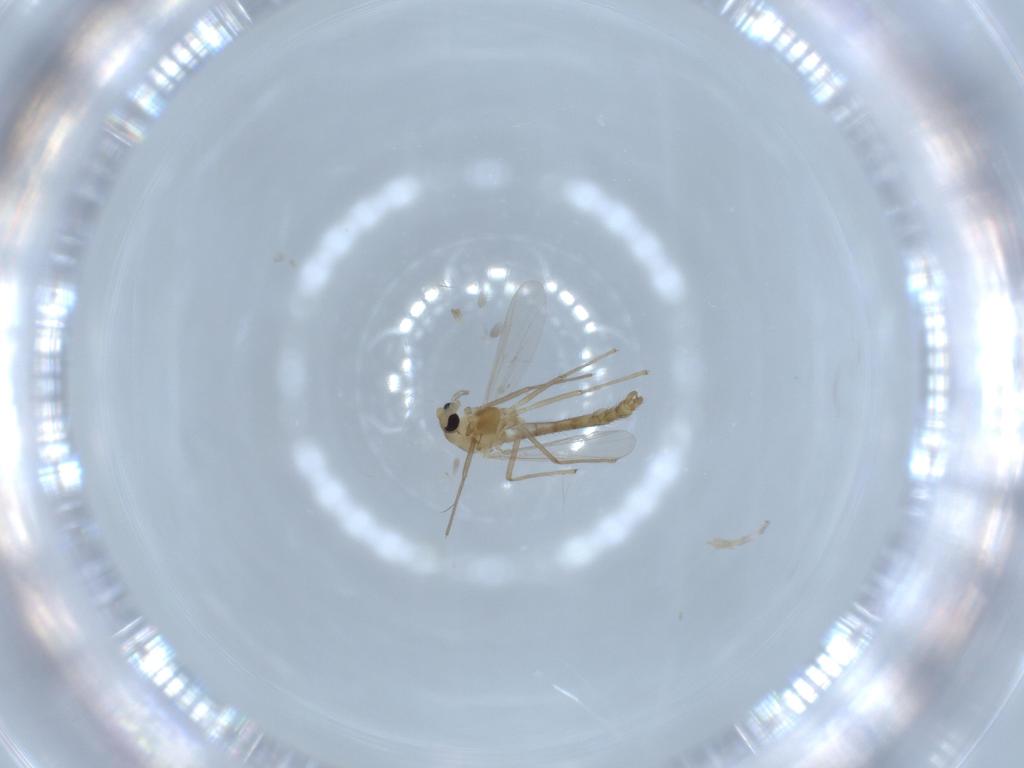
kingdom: Animalia
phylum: Arthropoda
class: Insecta
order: Diptera
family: Chironomidae
